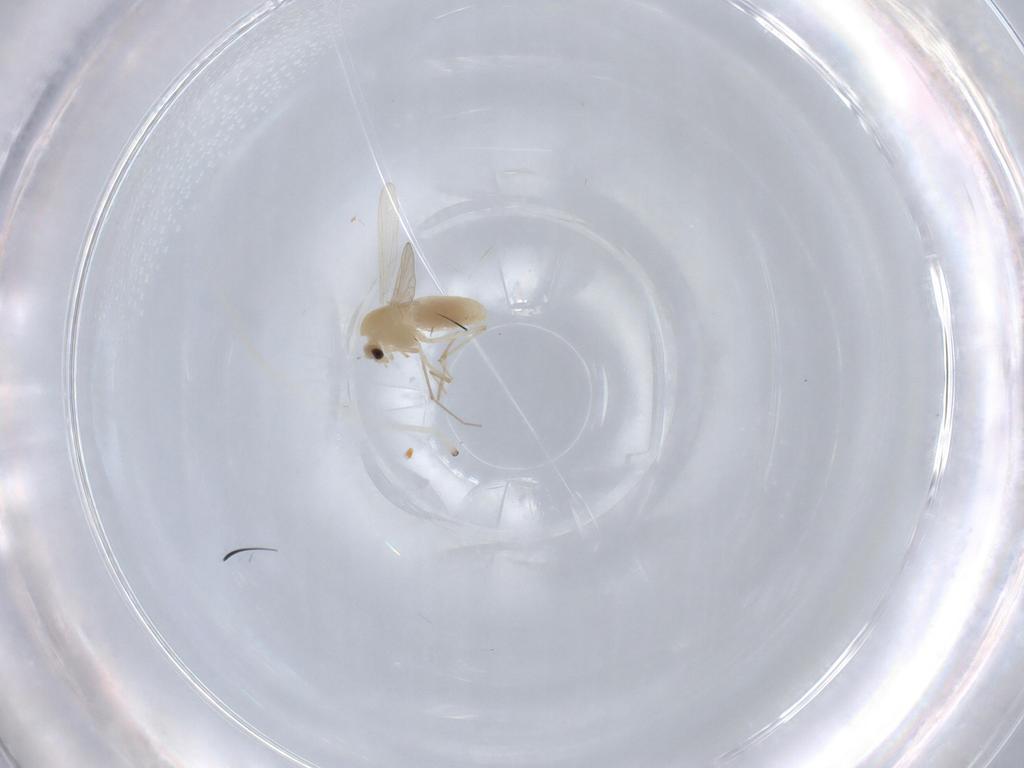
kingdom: Animalia
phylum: Arthropoda
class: Insecta
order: Diptera
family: Chironomidae
